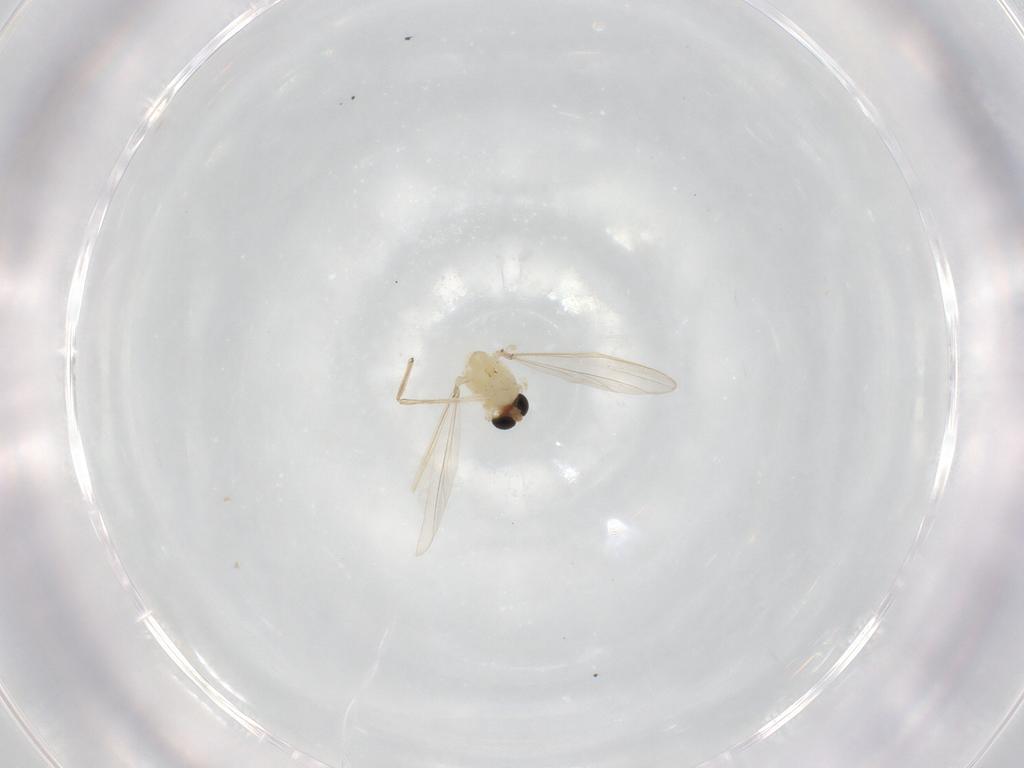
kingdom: Animalia
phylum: Arthropoda
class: Insecta
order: Diptera
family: Chironomidae
